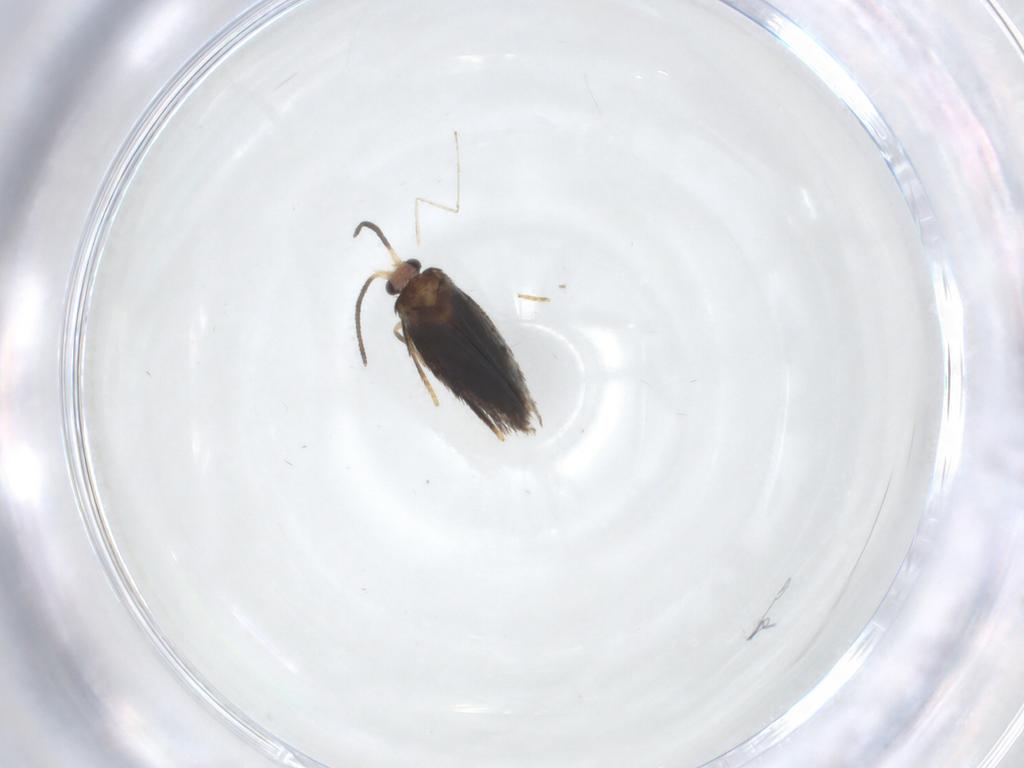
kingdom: Animalia
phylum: Arthropoda
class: Insecta
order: Lepidoptera
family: Nepticulidae
